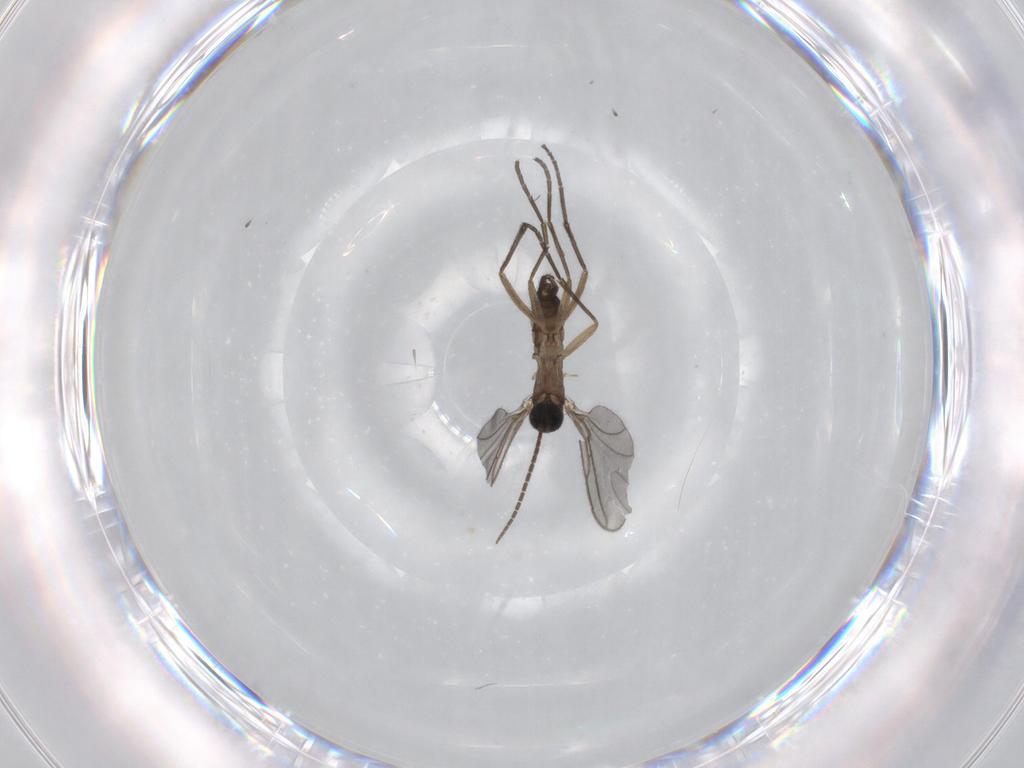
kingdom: Animalia
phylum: Arthropoda
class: Insecta
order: Diptera
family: Sciaridae
